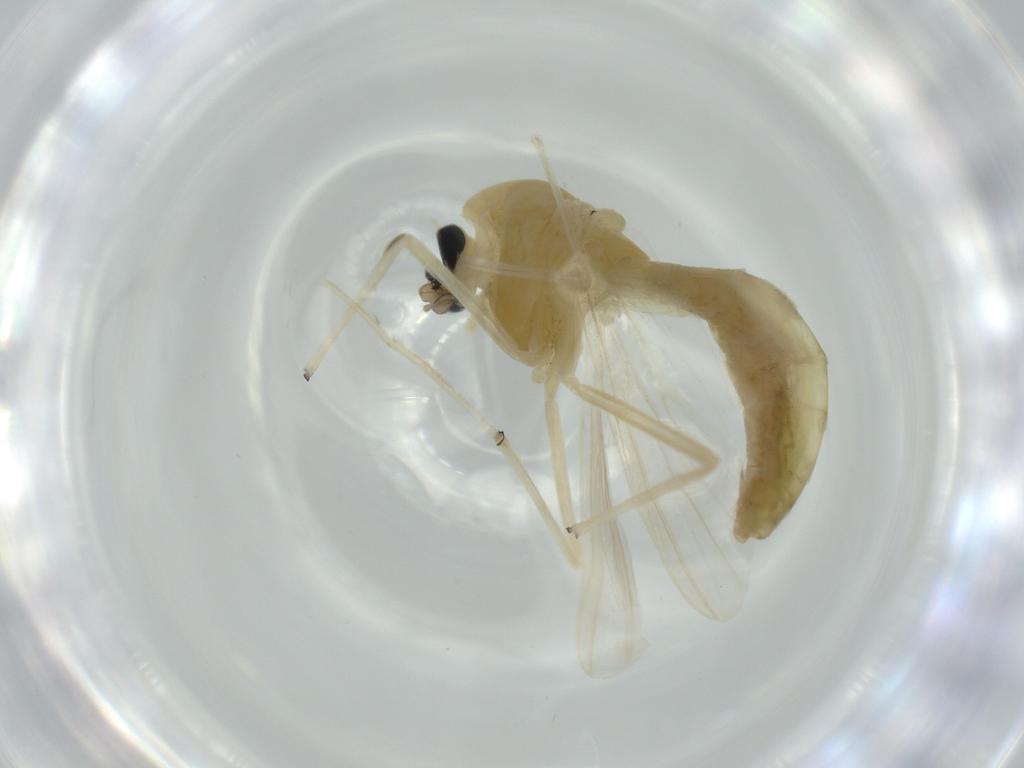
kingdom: Animalia
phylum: Arthropoda
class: Insecta
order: Diptera
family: Chironomidae
